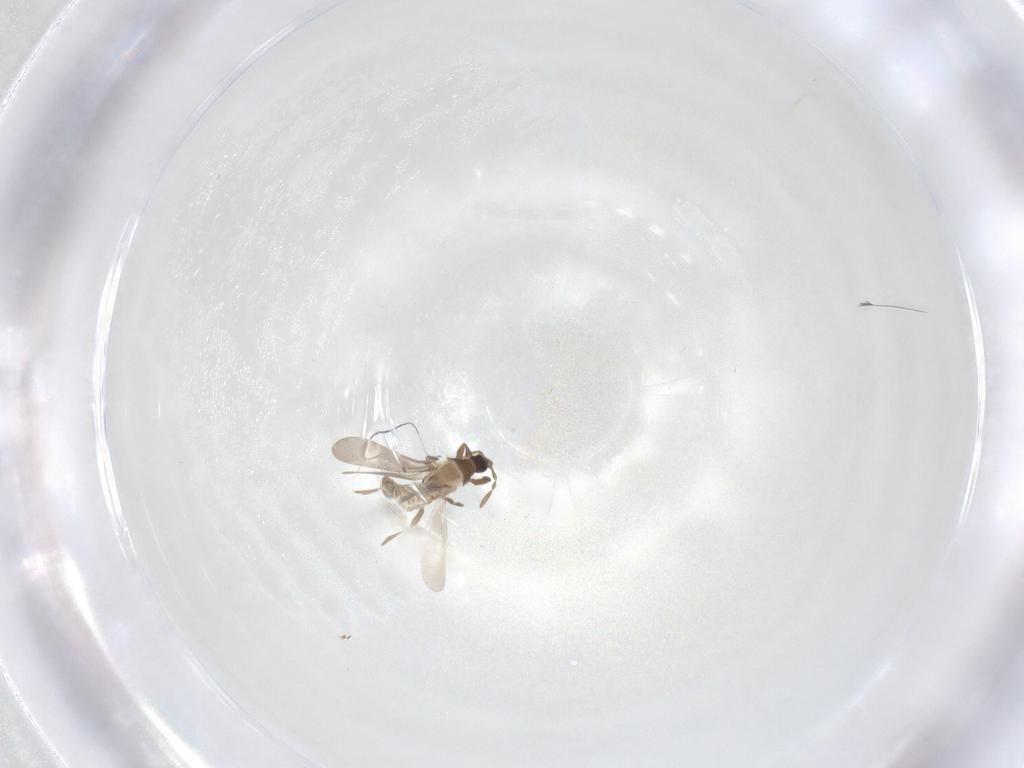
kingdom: Animalia
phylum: Arthropoda
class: Insecta
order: Hemiptera
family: Enicocephalidae
